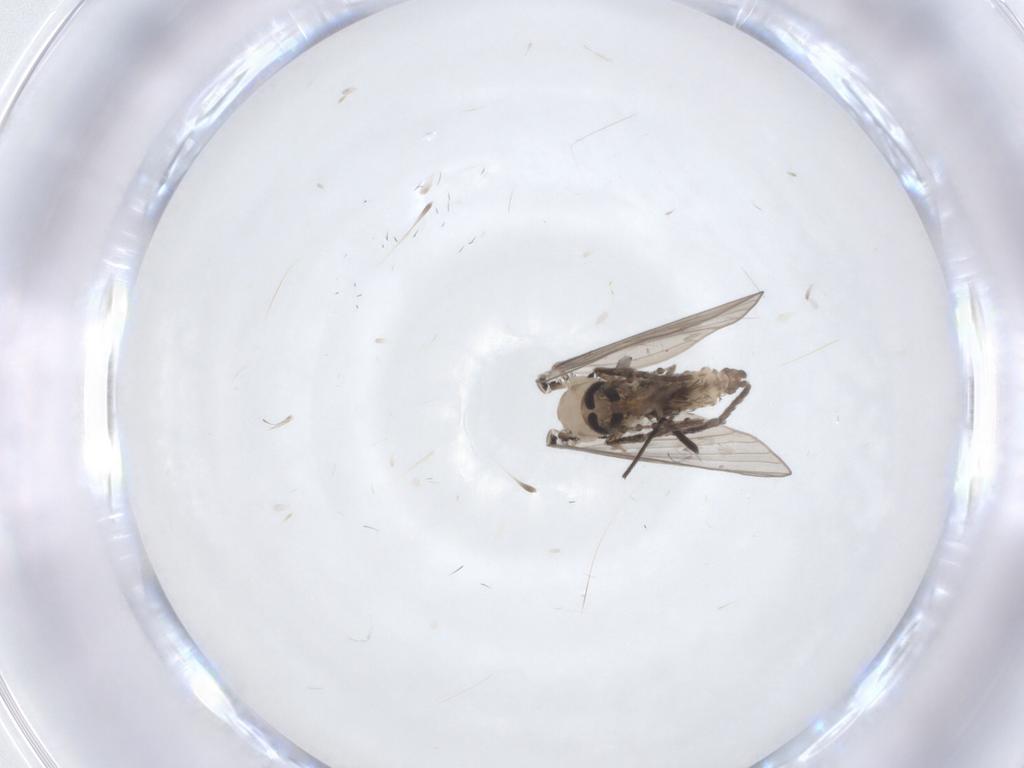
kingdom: Animalia
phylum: Arthropoda
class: Insecta
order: Diptera
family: Psychodidae
